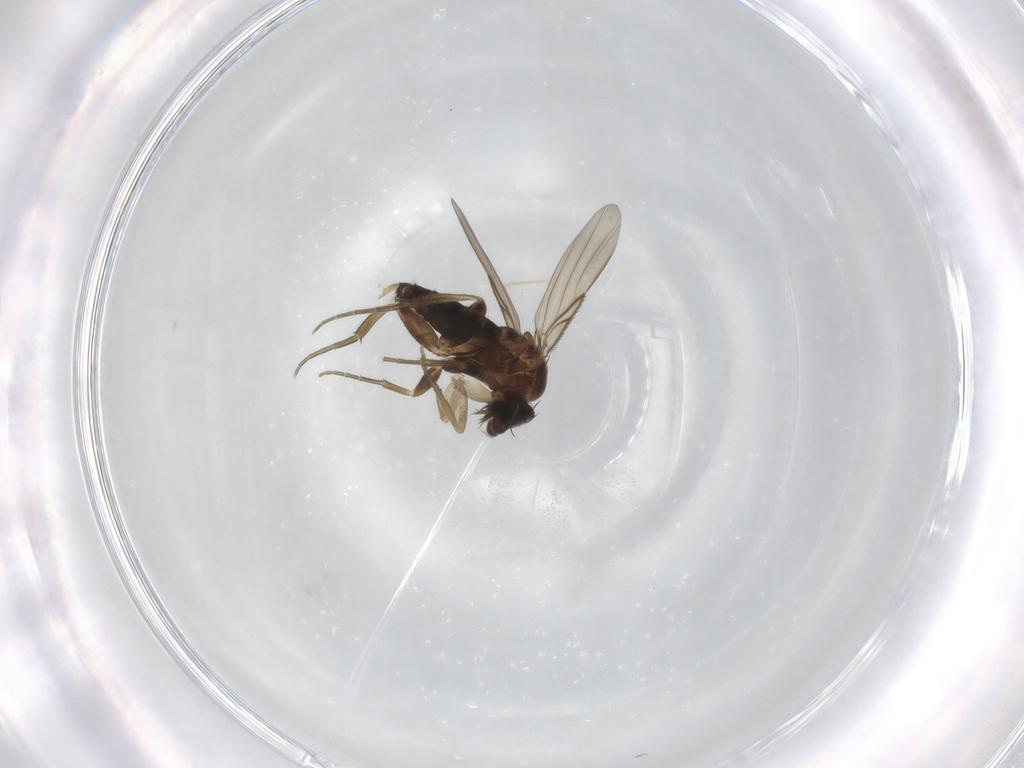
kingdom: Animalia
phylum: Arthropoda
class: Insecta
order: Diptera
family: Phoridae
